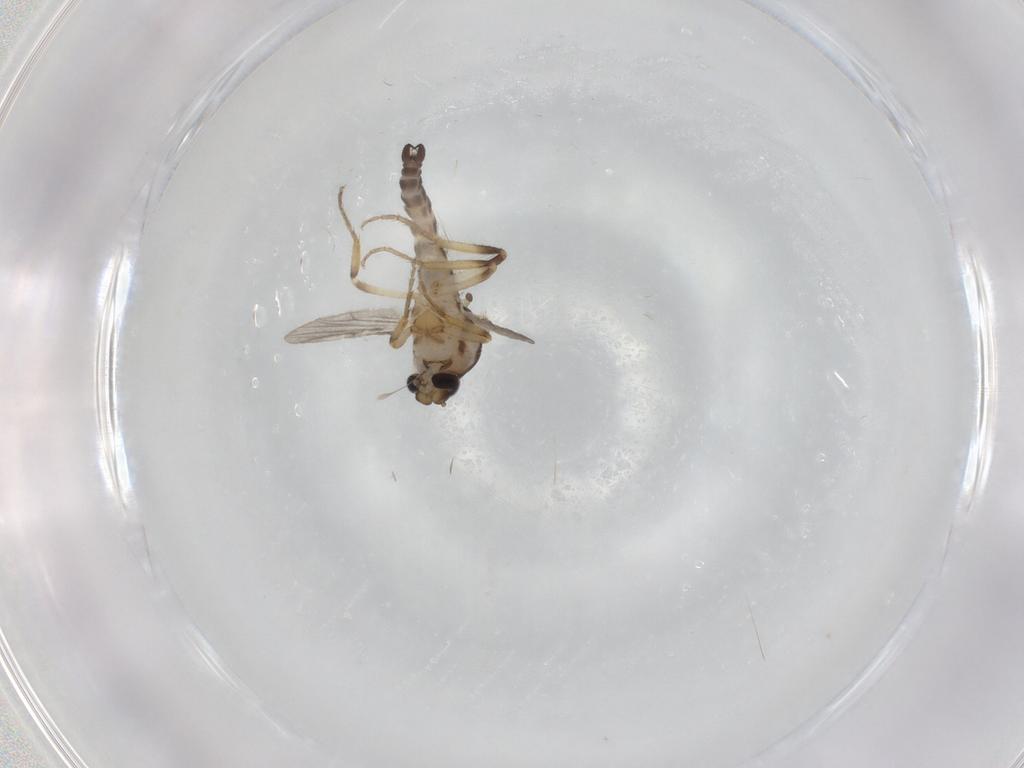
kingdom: Animalia
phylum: Arthropoda
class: Insecta
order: Diptera
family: Ceratopogonidae
